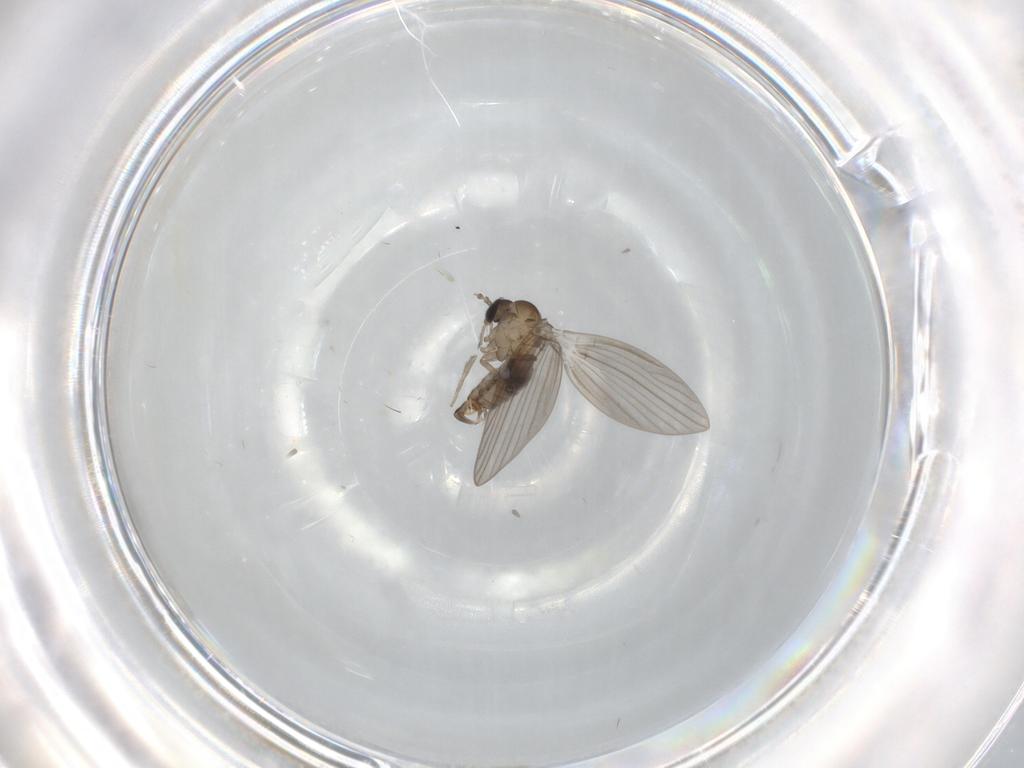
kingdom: Animalia
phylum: Arthropoda
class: Insecta
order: Diptera
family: Psychodidae
